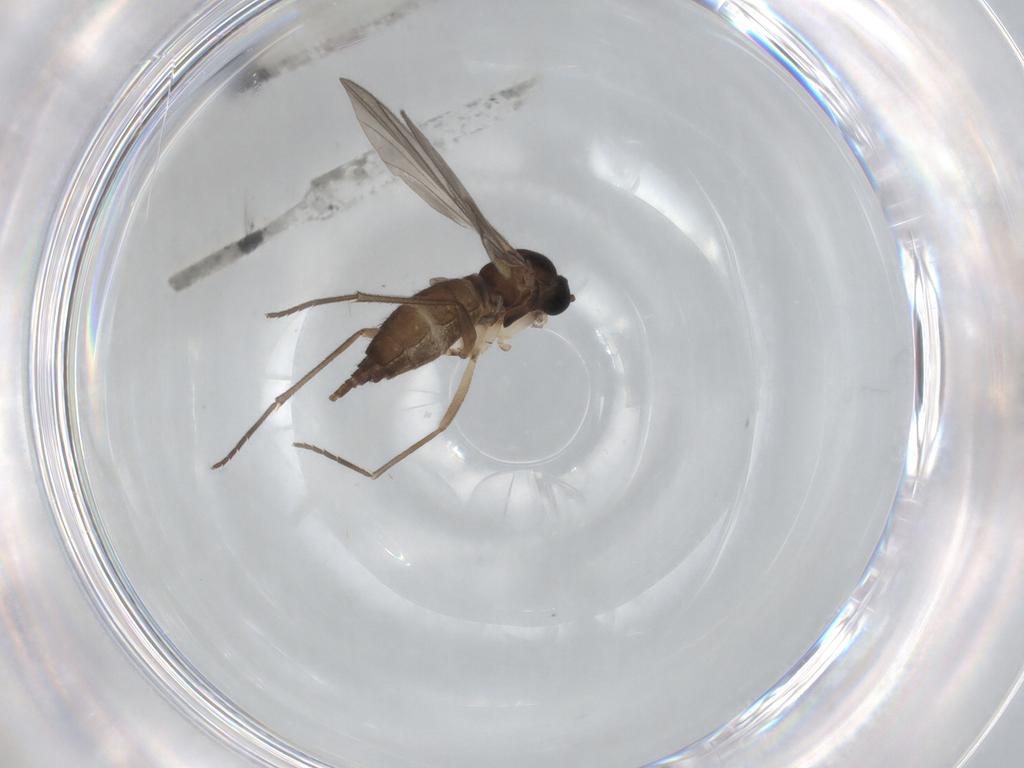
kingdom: Animalia
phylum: Arthropoda
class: Insecta
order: Diptera
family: Sciaridae
